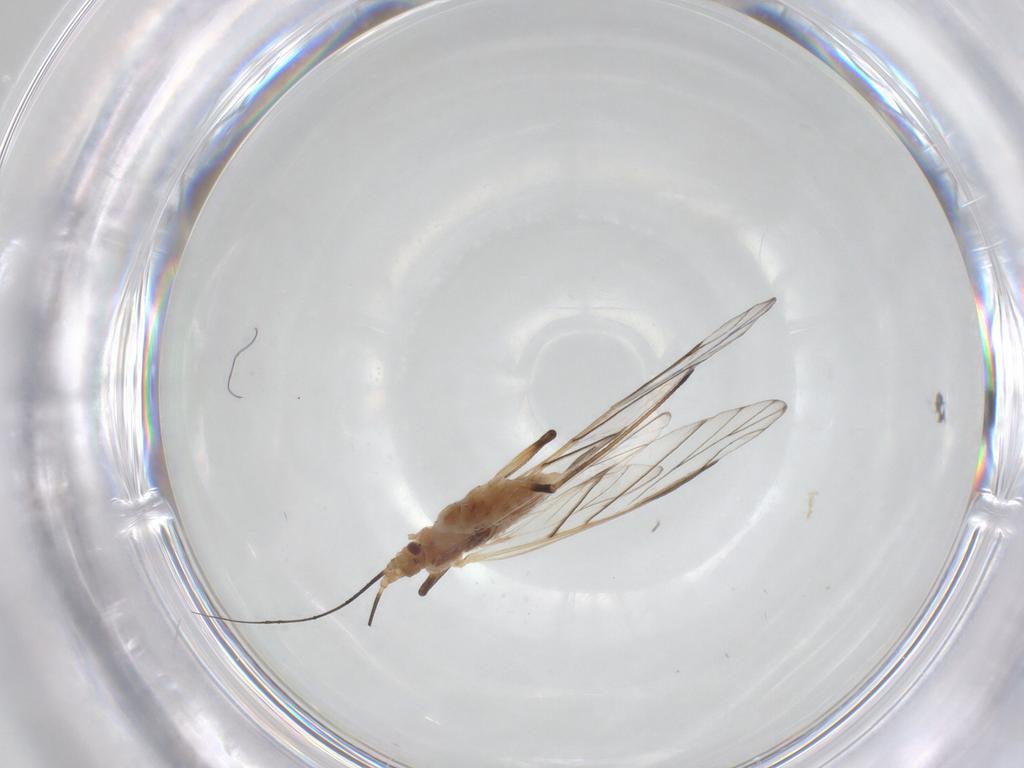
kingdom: Animalia
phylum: Arthropoda
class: Insecta
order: Hemiptera
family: Aphididae
